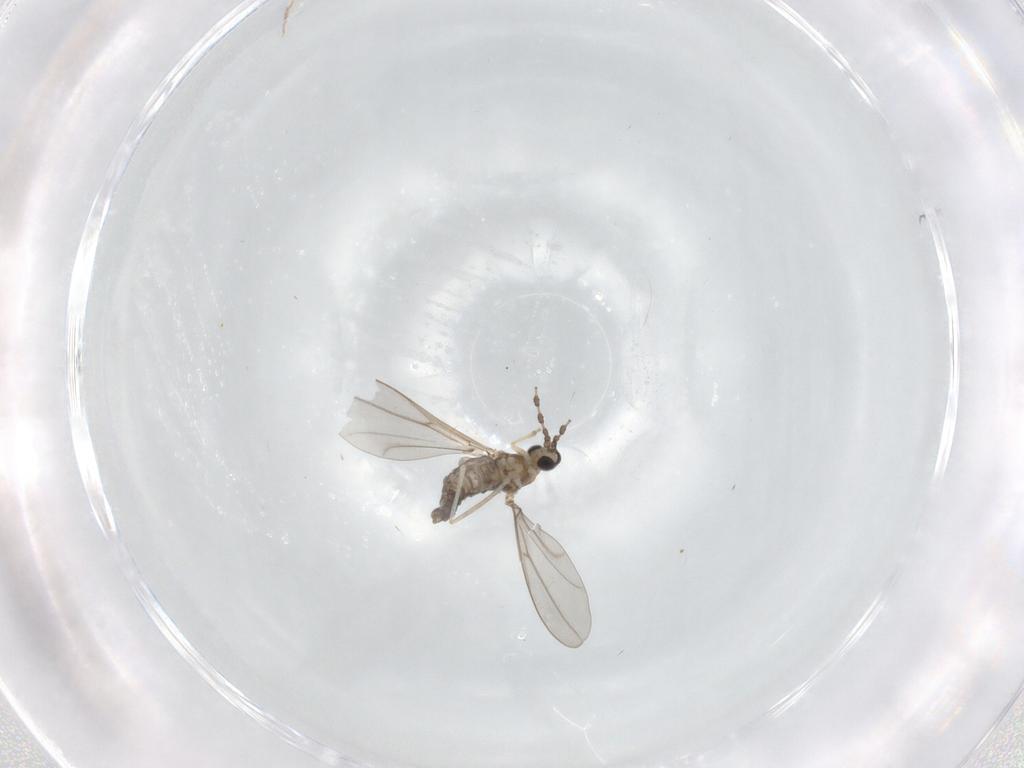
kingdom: Animalia
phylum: Arthropoda
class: Insecta
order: Diptera
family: Cecidomyiidae
